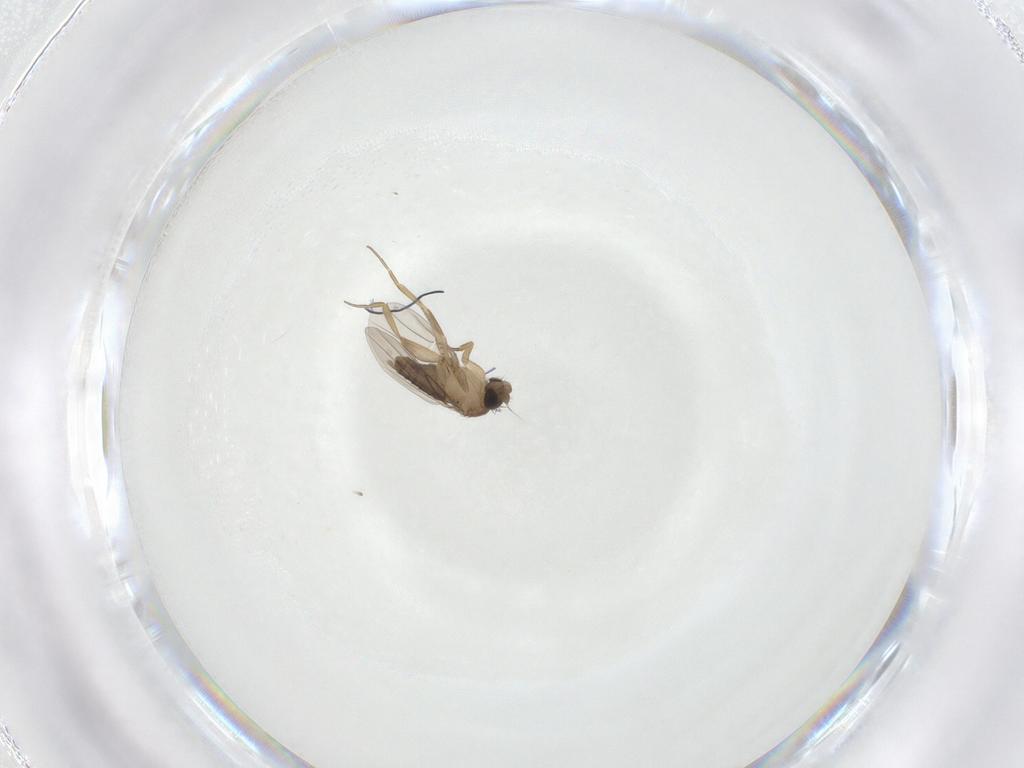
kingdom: Animalia
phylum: Arthropoda
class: Insecta
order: Diptera
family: Phoridae
